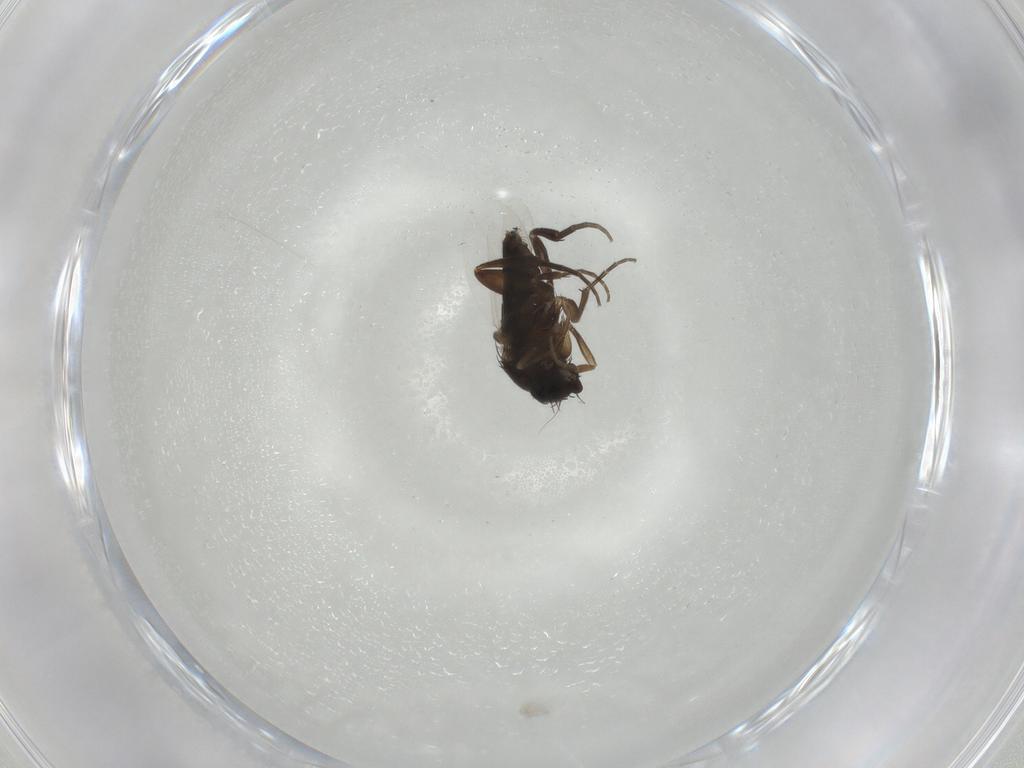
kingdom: Animalia
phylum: Arthropoda
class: Insecta
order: Diptera
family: Phoridae
